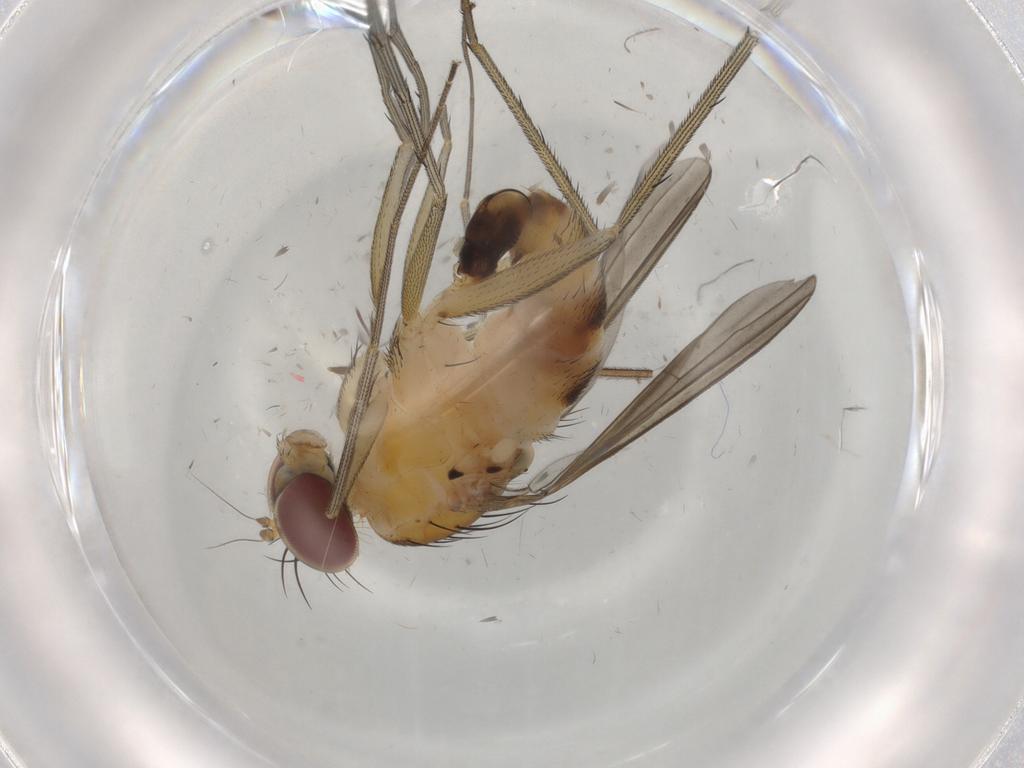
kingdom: Animalia
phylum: Arthropoda
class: Insecta
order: Diptera
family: Dolichopodidae
